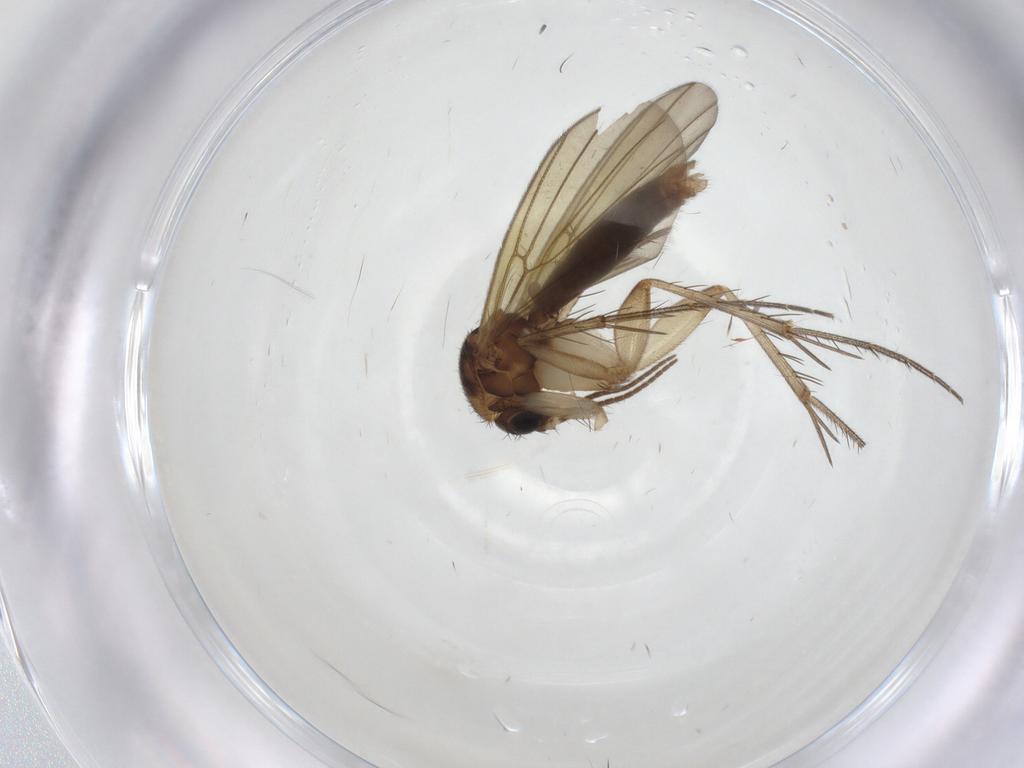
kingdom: Animalia
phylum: Arthropoda
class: Insecta
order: Diptera
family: Mycetophilidae
